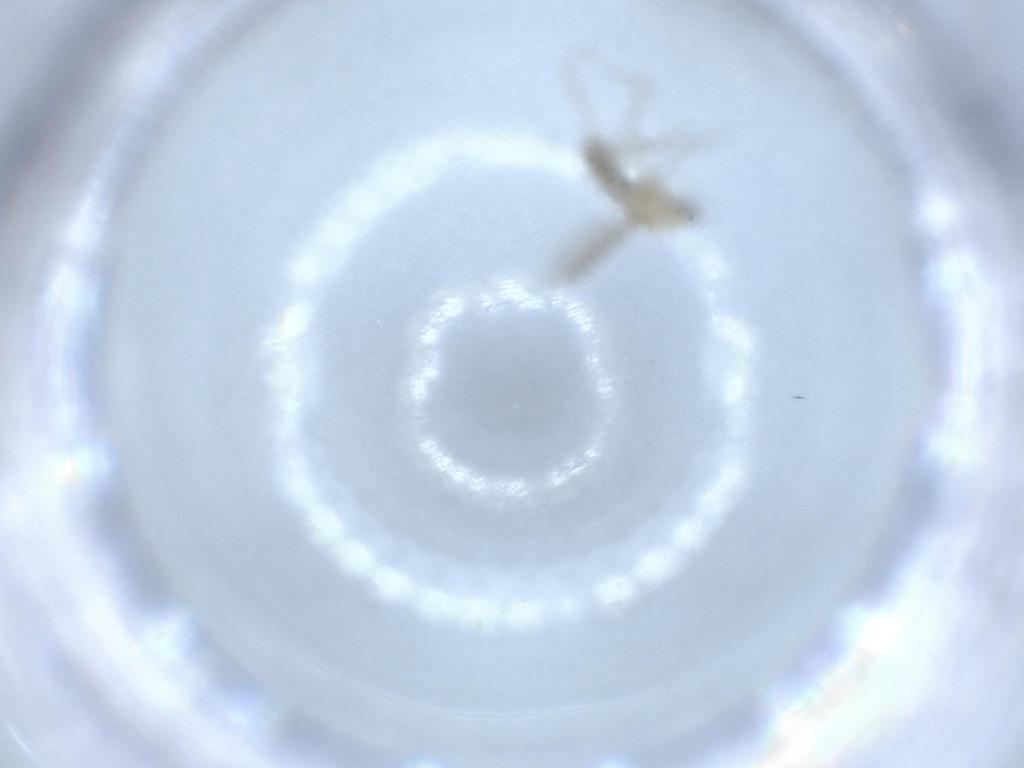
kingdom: Animalia
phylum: Arthropoda
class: Insecta
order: Diptera
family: Chironomidae
